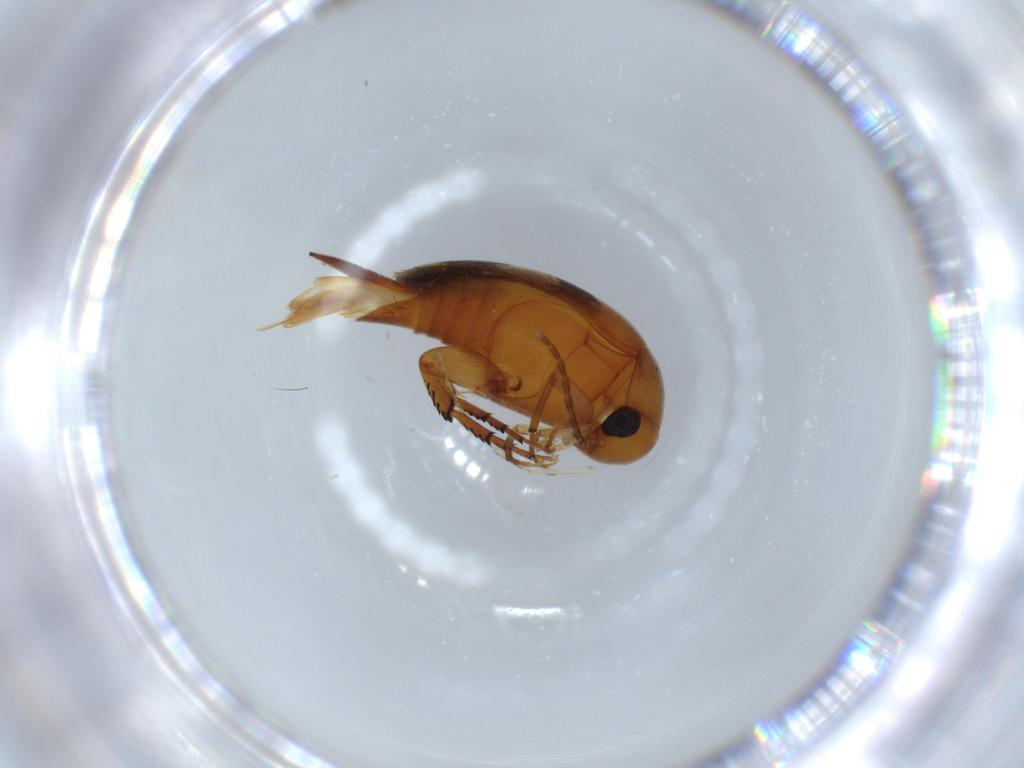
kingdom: Animalia
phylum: Arthropoda
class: Insecta
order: Coleoptera
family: Mordellidae
